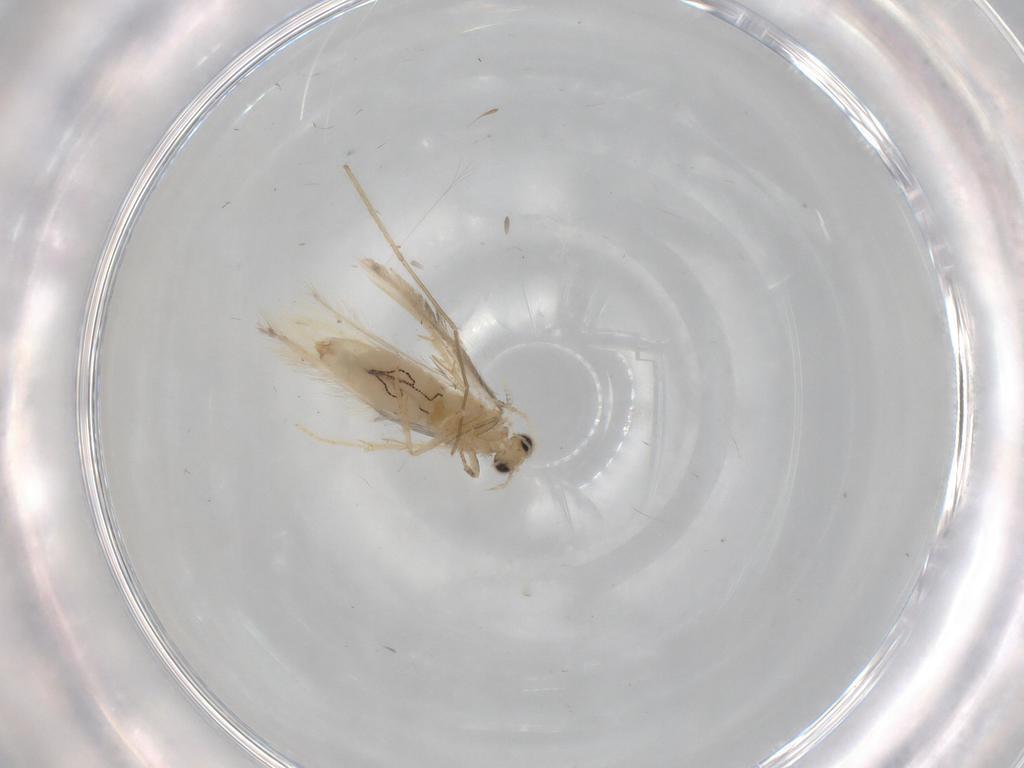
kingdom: Animalia
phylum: Arthropoda
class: Insecta
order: Trichoptera
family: Hydroptilidae
